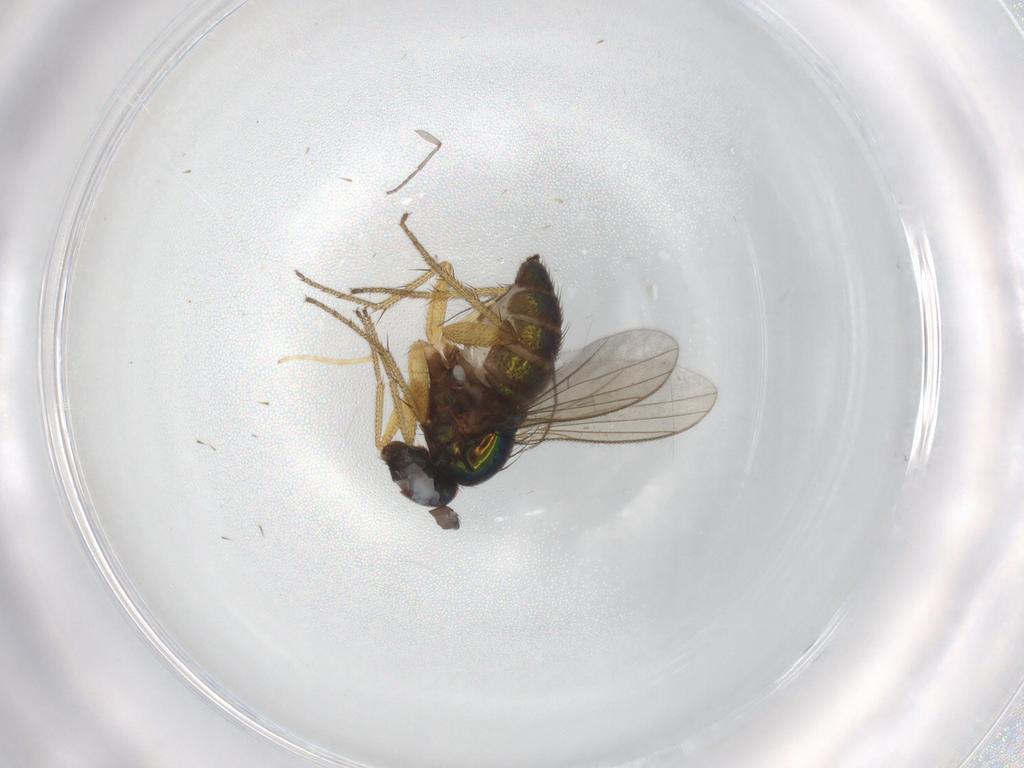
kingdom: Animalia
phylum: Arthropoda
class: Insecta
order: Diptera
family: Sciaridae
